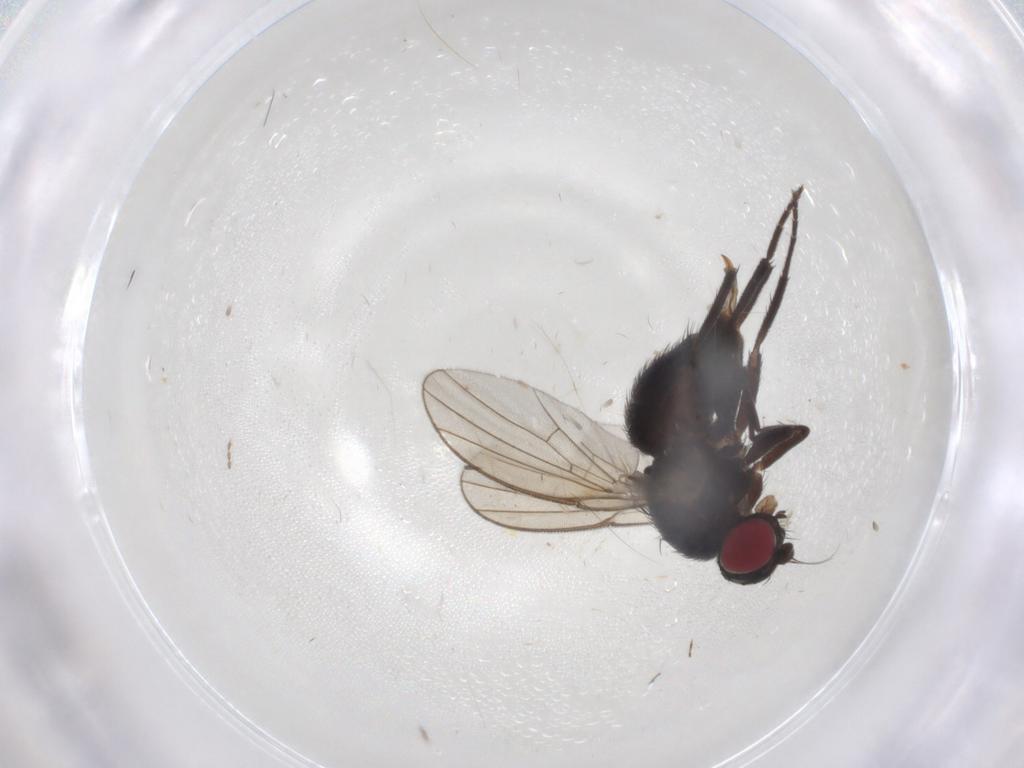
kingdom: Animalia
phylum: Arthropoda
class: Insecta
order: Diptera
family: Agromyzidae
